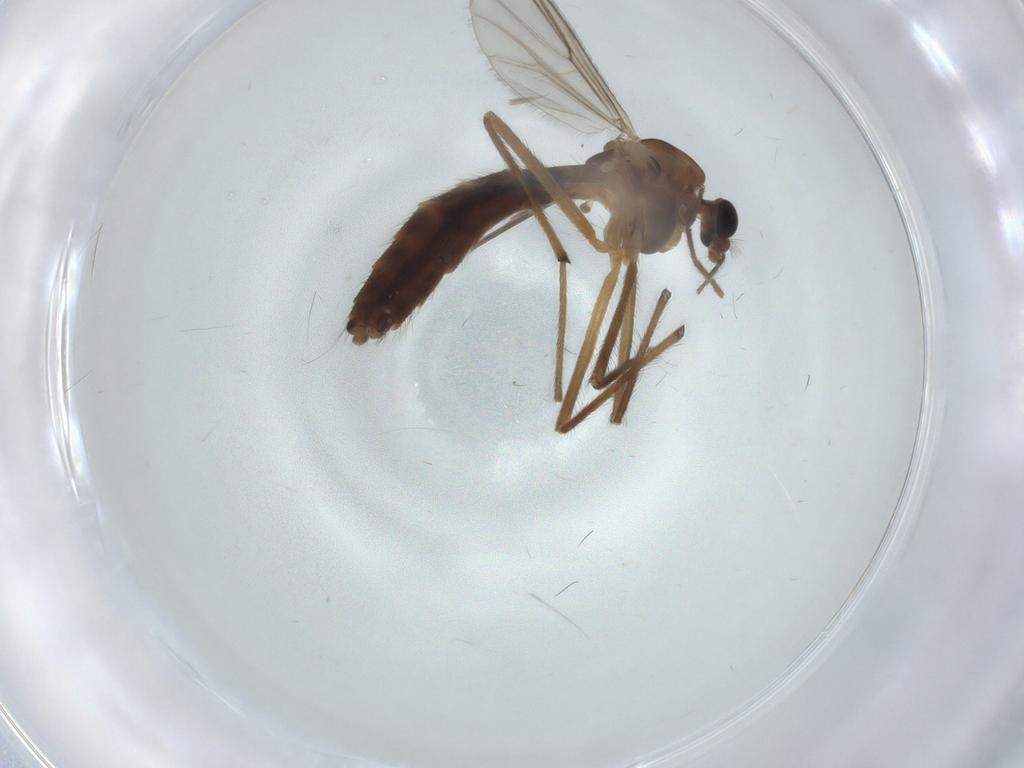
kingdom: Animalia
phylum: Arthropoda
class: Insecta
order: Diptera
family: Chironomidae
